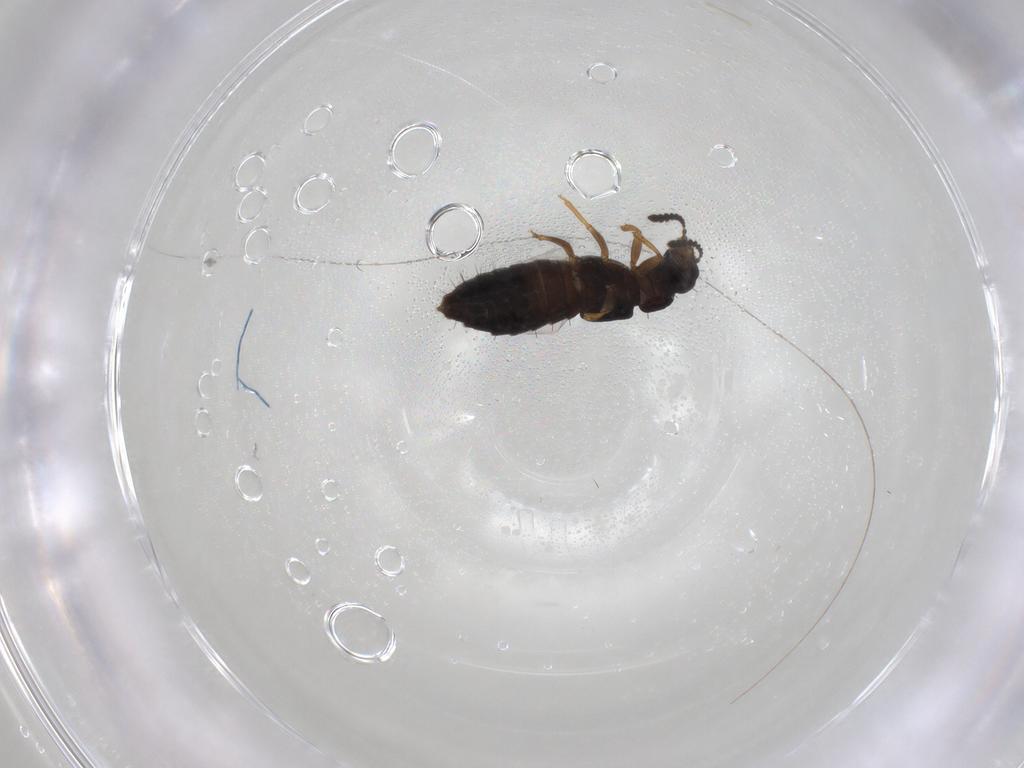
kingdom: Animalia
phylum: Arthropoda
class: Insecta
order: Coleoptera
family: Staphylinidae
